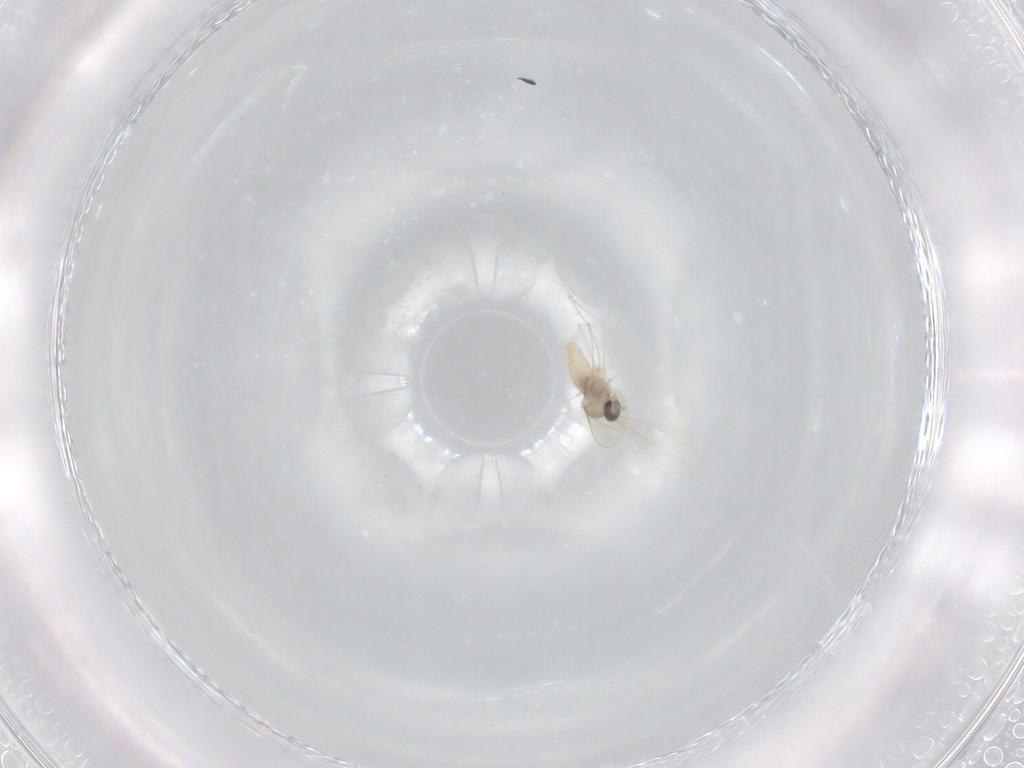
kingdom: Animalia
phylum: Arthropoda
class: Insecta
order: Diptera
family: Cecidomyiidae
